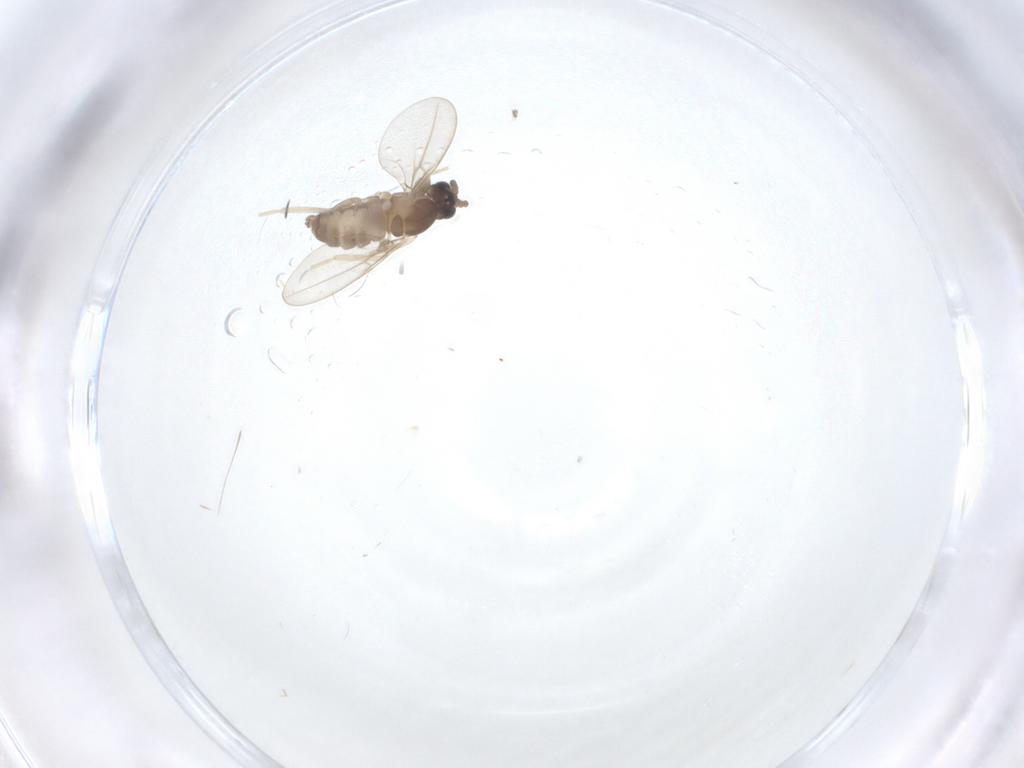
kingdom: Animalia
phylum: Arthropoda
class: Insecta
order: Diptera
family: Cecidomyiidae
